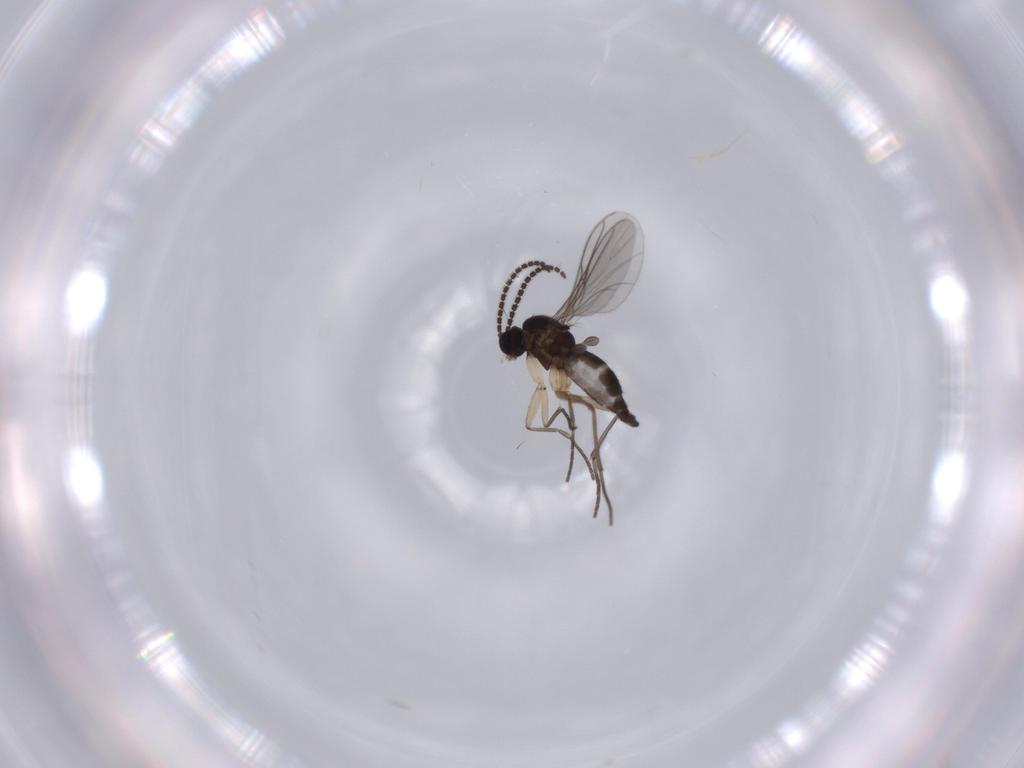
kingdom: Animalia
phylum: Arthropoda
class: Insecta
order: Diptera
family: Sciaridae
